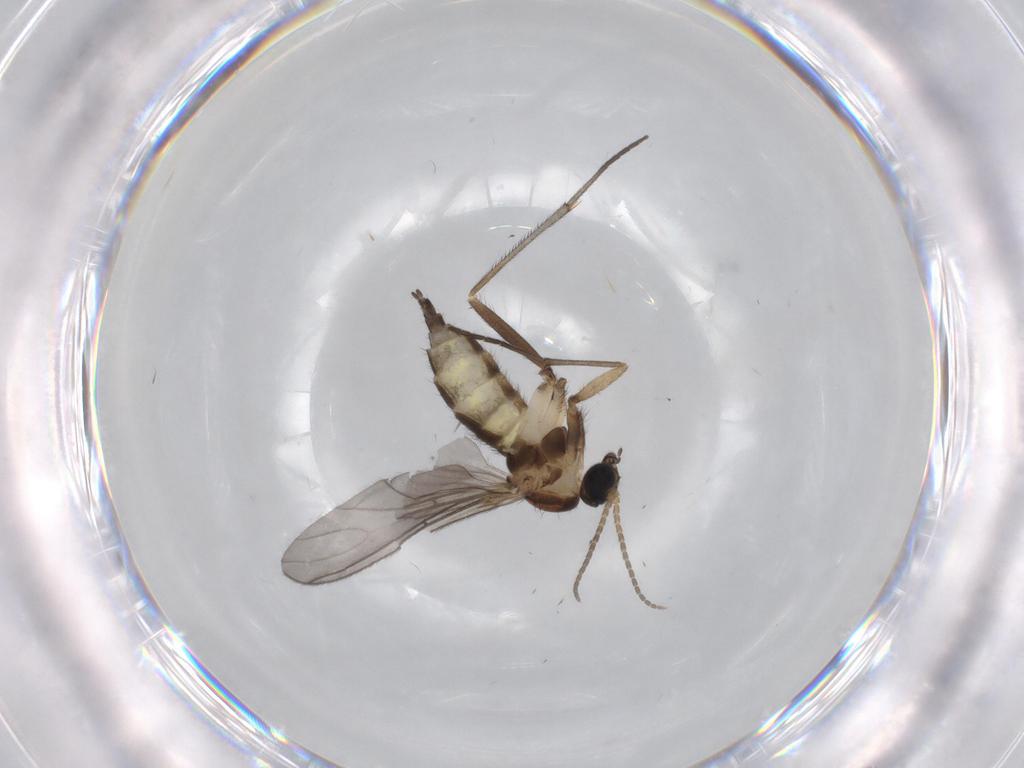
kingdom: Animalia
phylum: Arthropoda
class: Insecta
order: Diptera
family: Sciaridae
